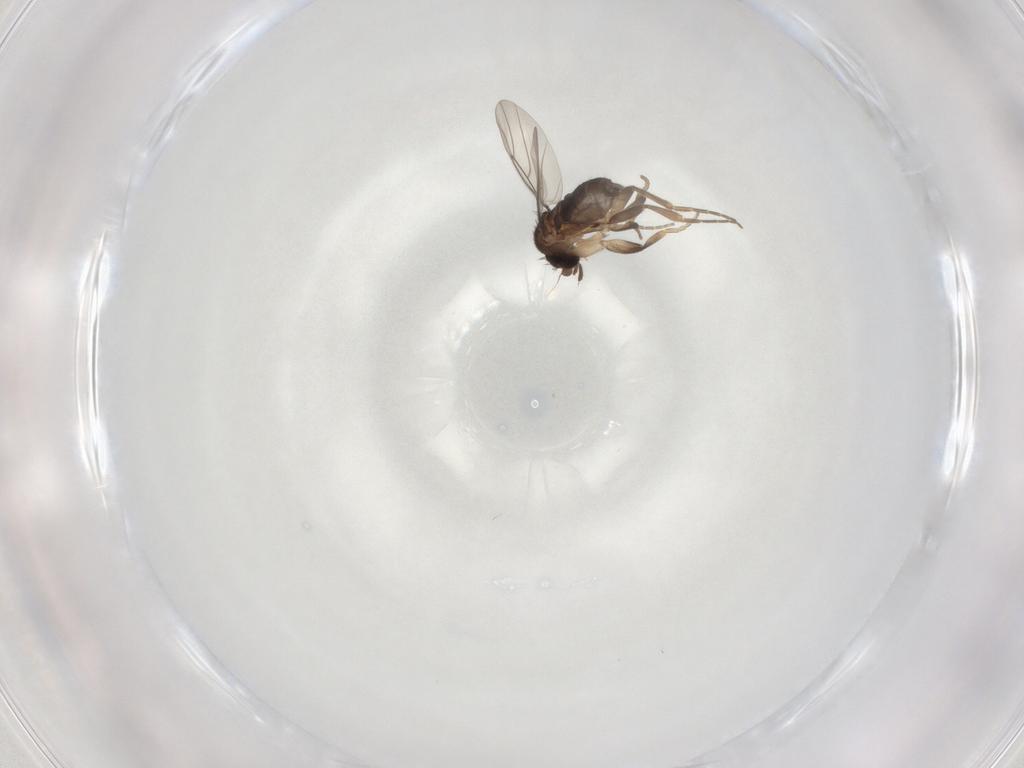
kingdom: Animalia
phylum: Arthropoda
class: Insecta
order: Diptera
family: Phoridae
